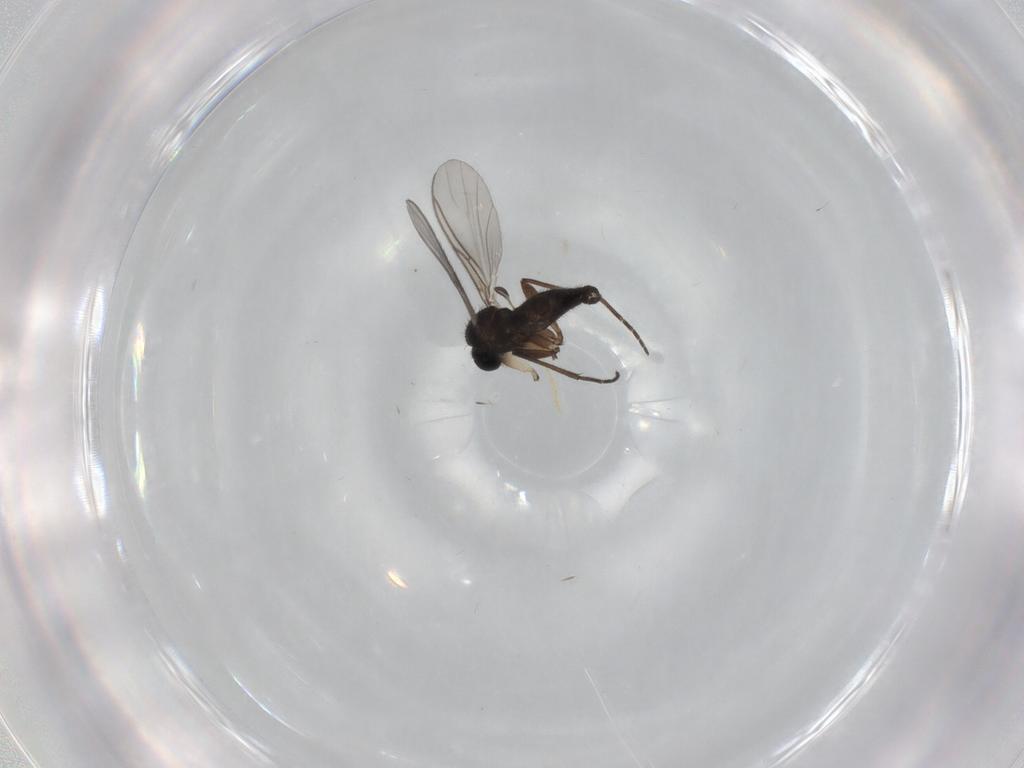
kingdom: Animalia
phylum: Arthropoda
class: Insecta
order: Diptera
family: Sciaridae
